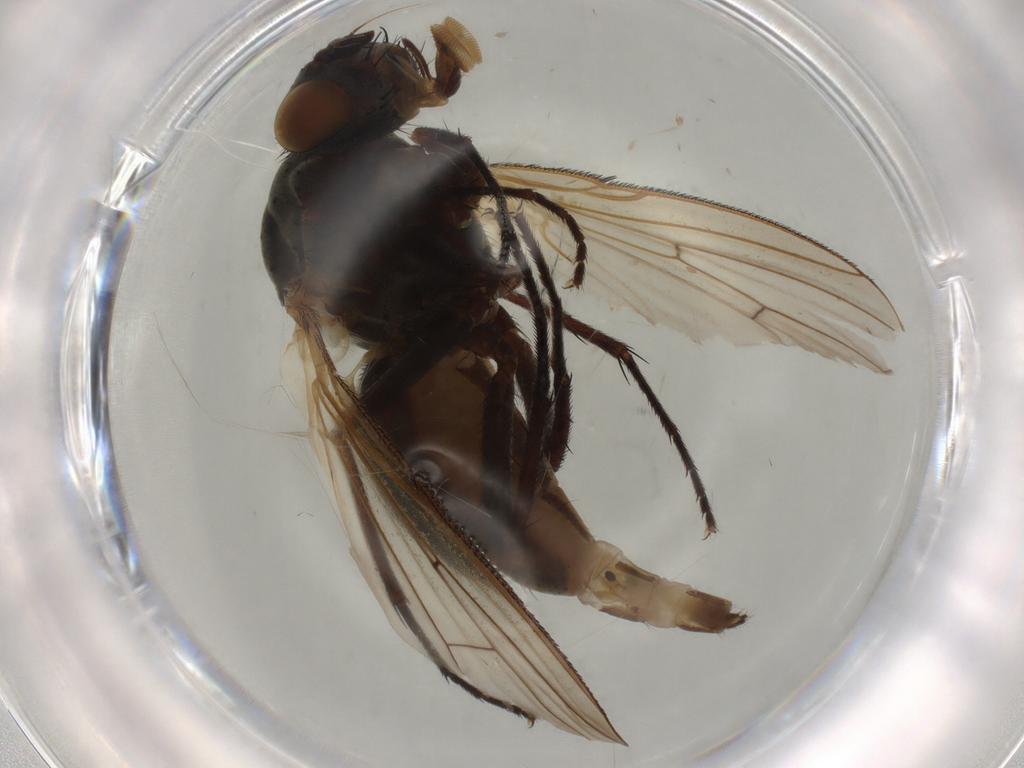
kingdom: Animalia
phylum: Arthropoda
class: Insecta
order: Diptera
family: Anthomyiidae
